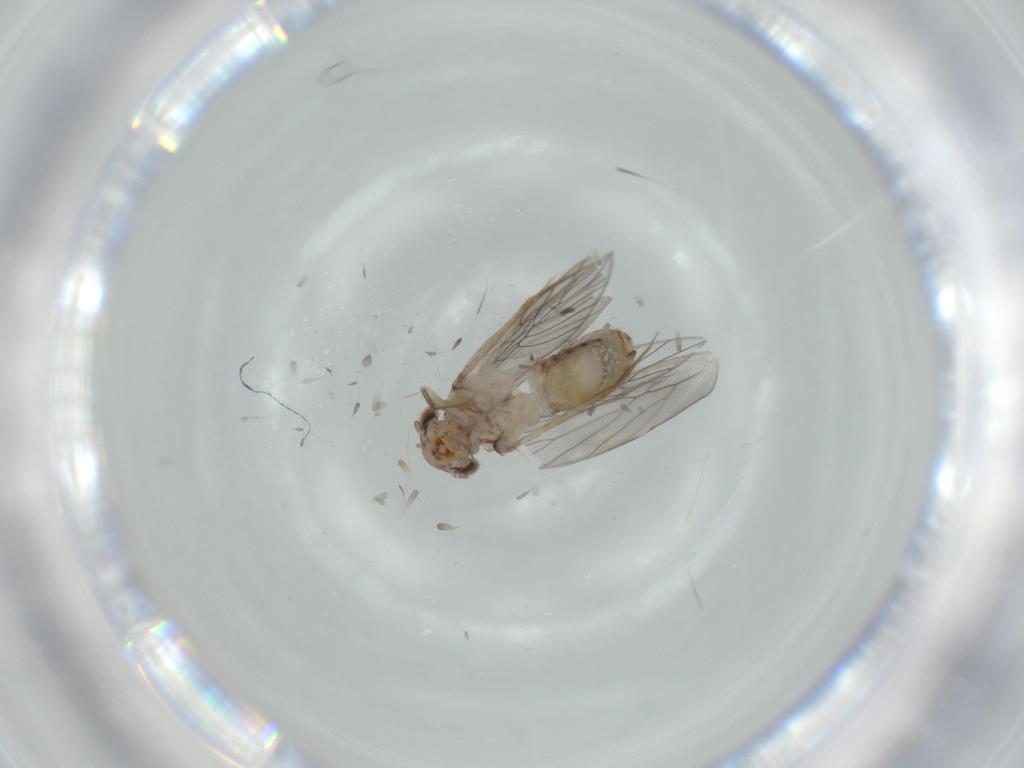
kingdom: Animalia
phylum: Arthropoda
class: Insecta
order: Psocodea
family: Lepidopsocidae
